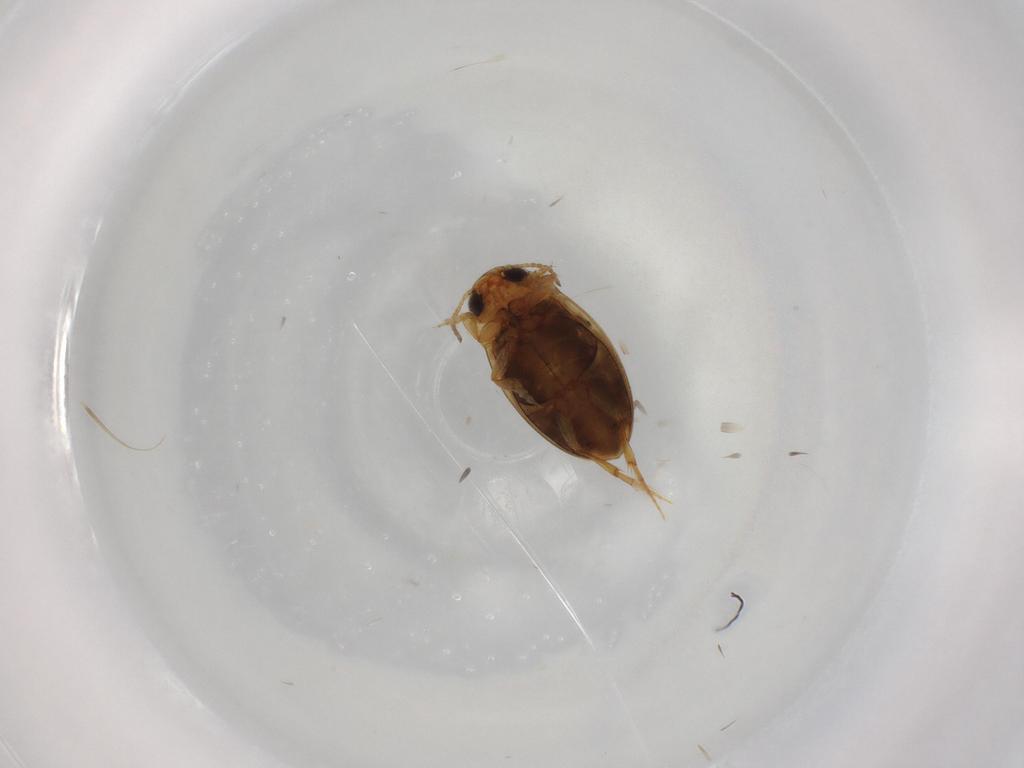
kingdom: Animalia
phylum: Arthropoda
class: Insecta
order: Coleoptera
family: Dytiscidae
